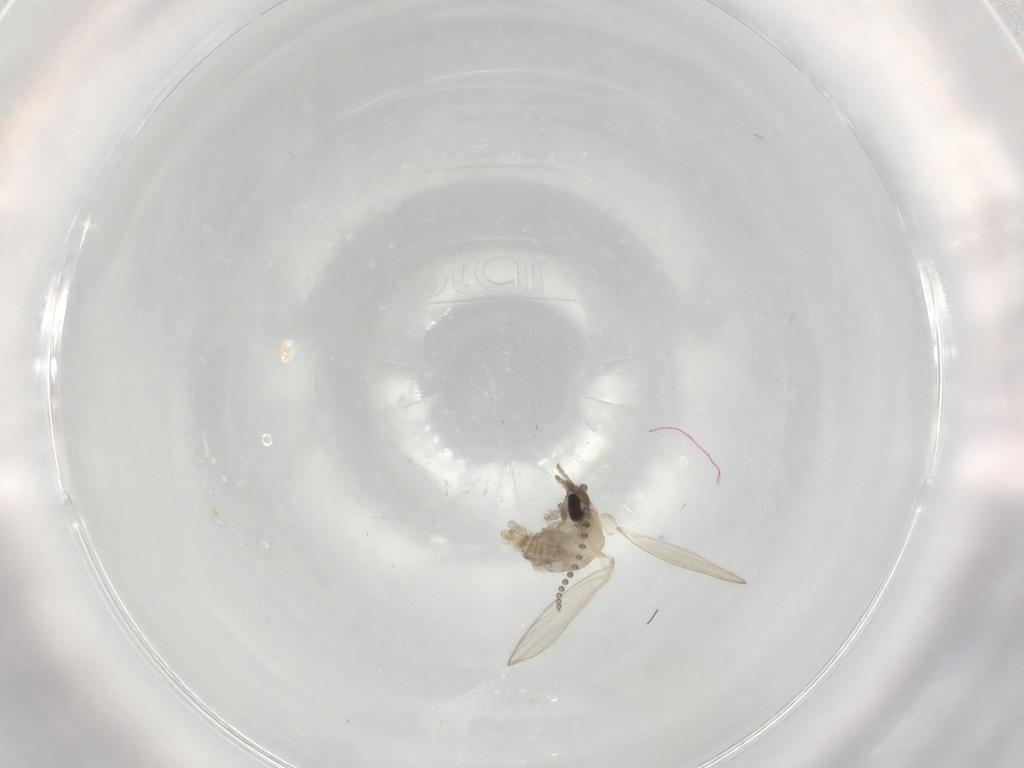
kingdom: Animalia
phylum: Arthropoda
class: Insecta
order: Diptera
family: Psychodidae
